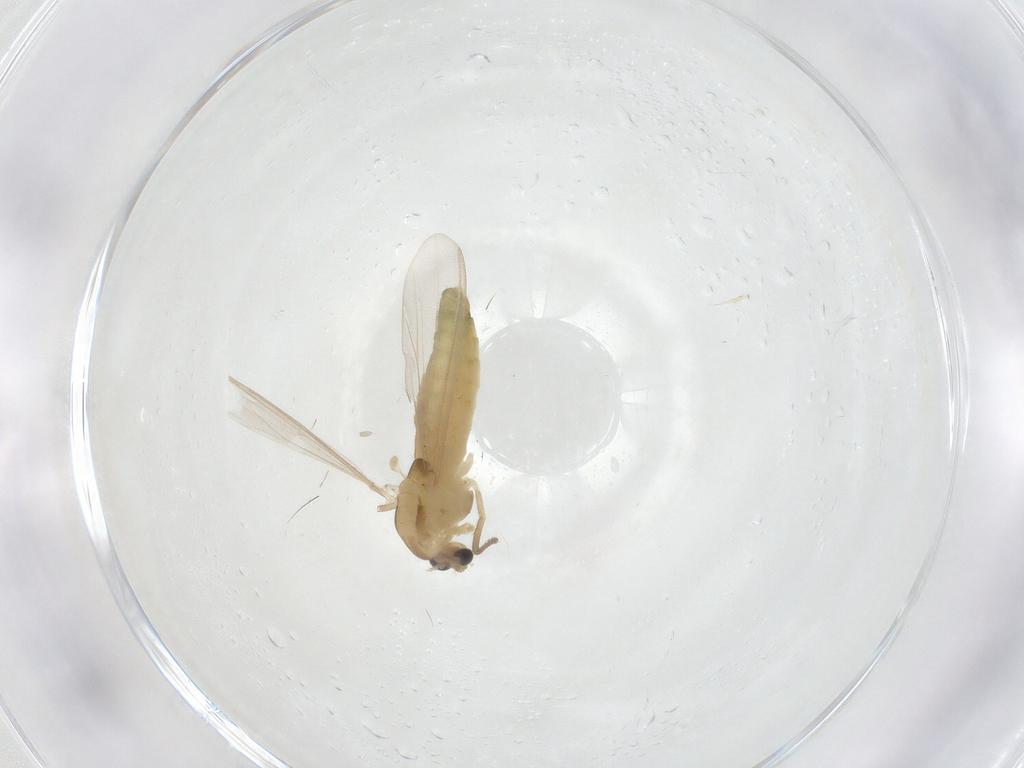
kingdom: Animalia
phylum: Arthropoda
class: Insecta
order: Diptera
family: Chironomidae
